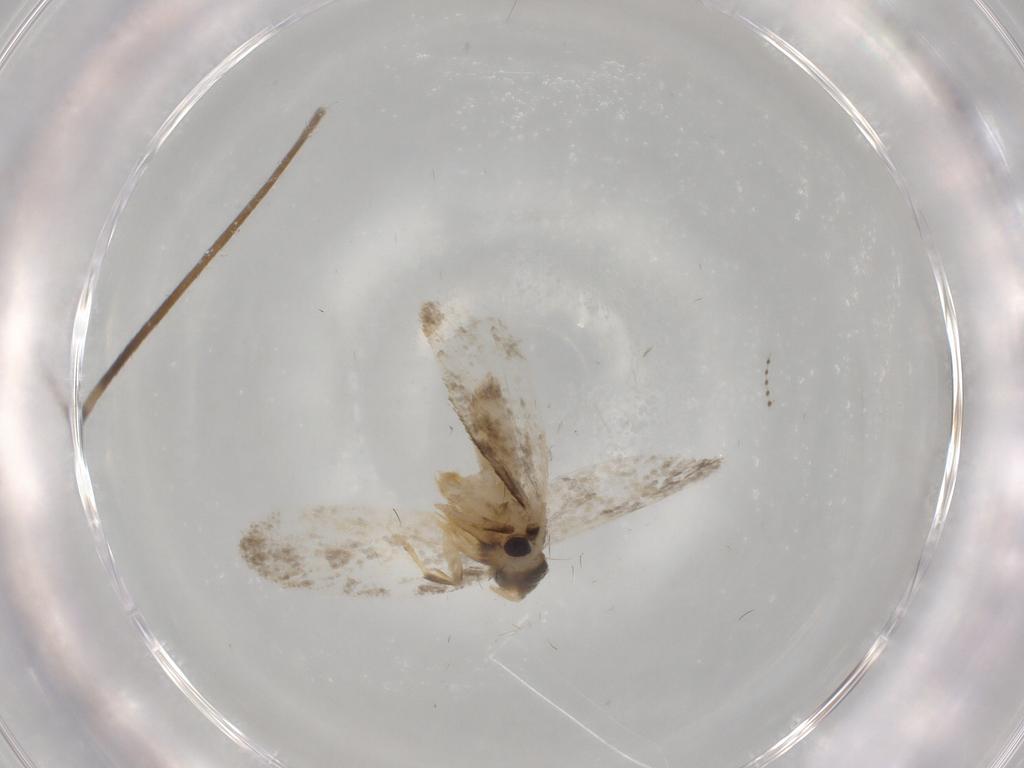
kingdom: Animalia
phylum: Arthropoda
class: Insecta
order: Lepidoptera
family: Psychidae
